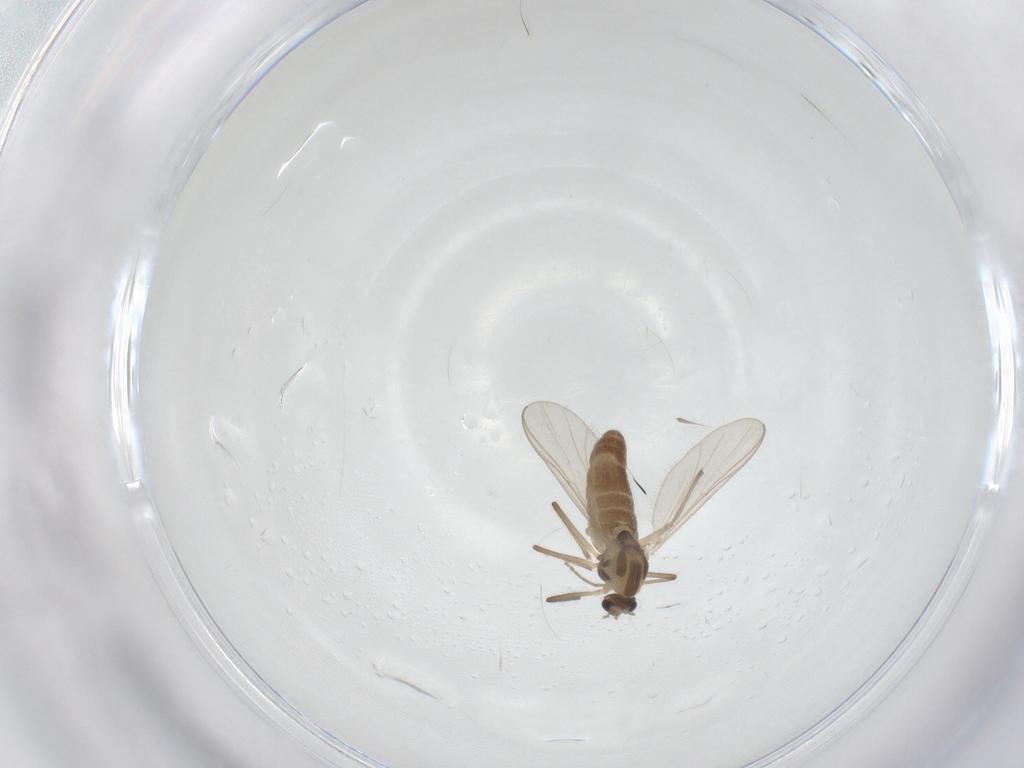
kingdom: Animalia
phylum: Arthropoda
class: Insecta
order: Diptera
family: Chironomidae
